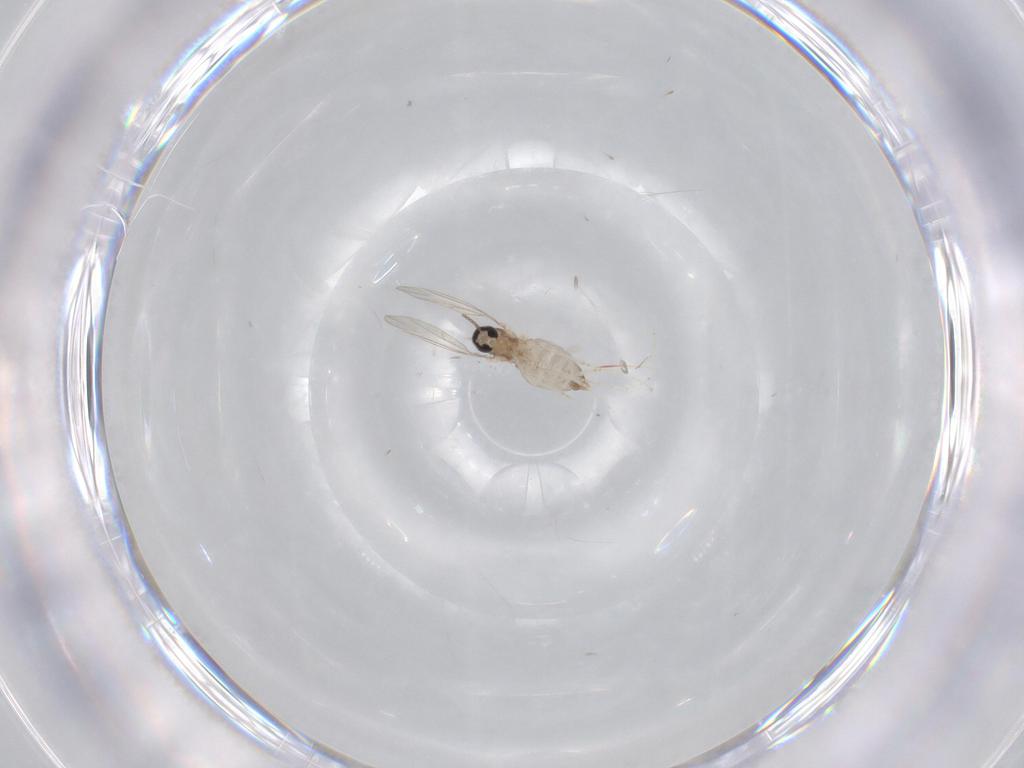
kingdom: Animalia
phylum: Arthropoda
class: Insecta
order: Diptera
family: Cecidomyiidae
